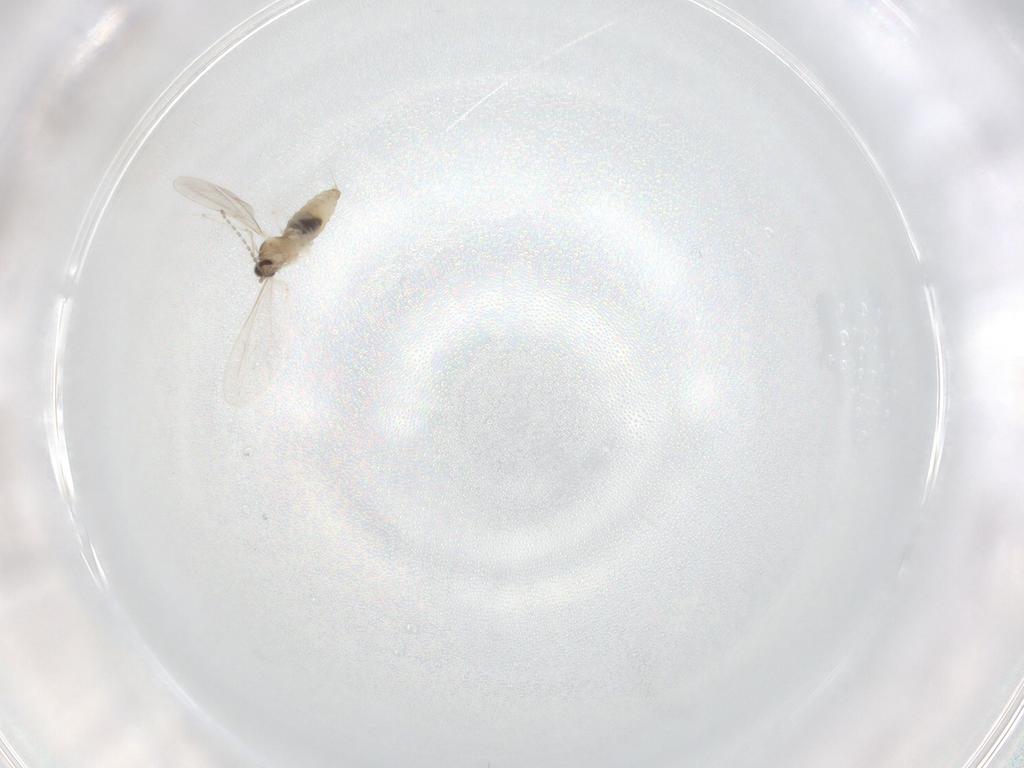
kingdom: Animalia
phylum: Arthropoda
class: Insecta
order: Diptera
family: Cecidomyiidae
